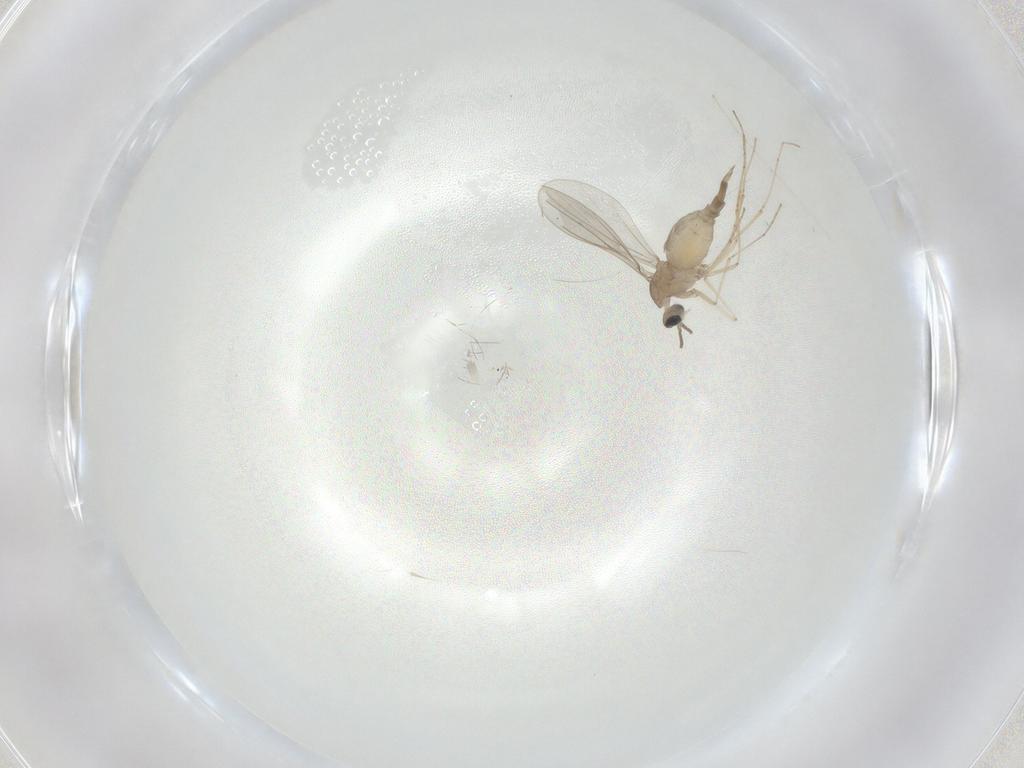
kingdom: Animalia
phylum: Arthropoda
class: Insecta
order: Diptera
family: Cecidomyiidae
